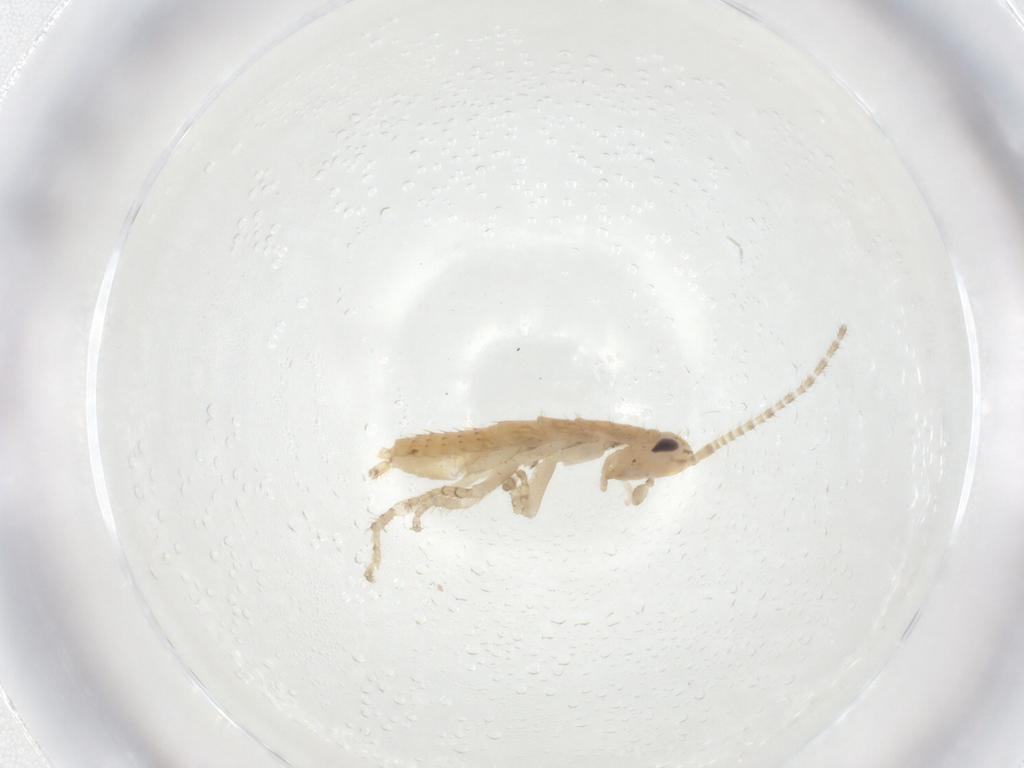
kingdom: Animalia
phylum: Arthropoda
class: Insecta
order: Blattodea
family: Ectobiidae
